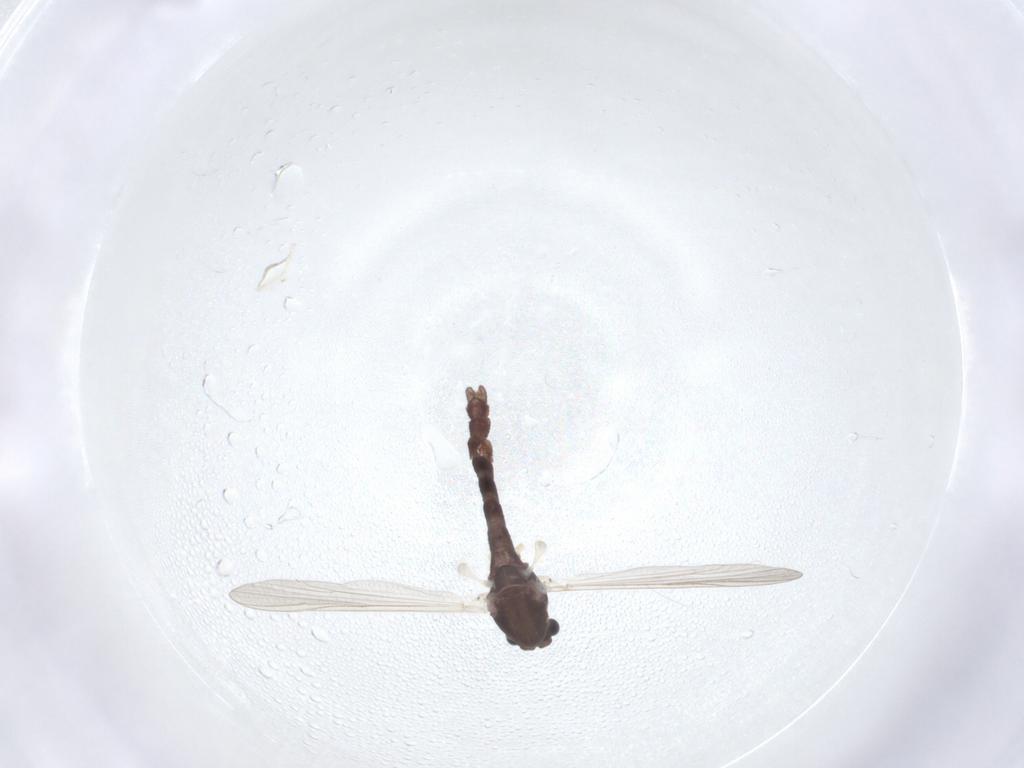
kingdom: Animalia
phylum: Arthropoda
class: Insecta
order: Diptera
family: Chironomidae
